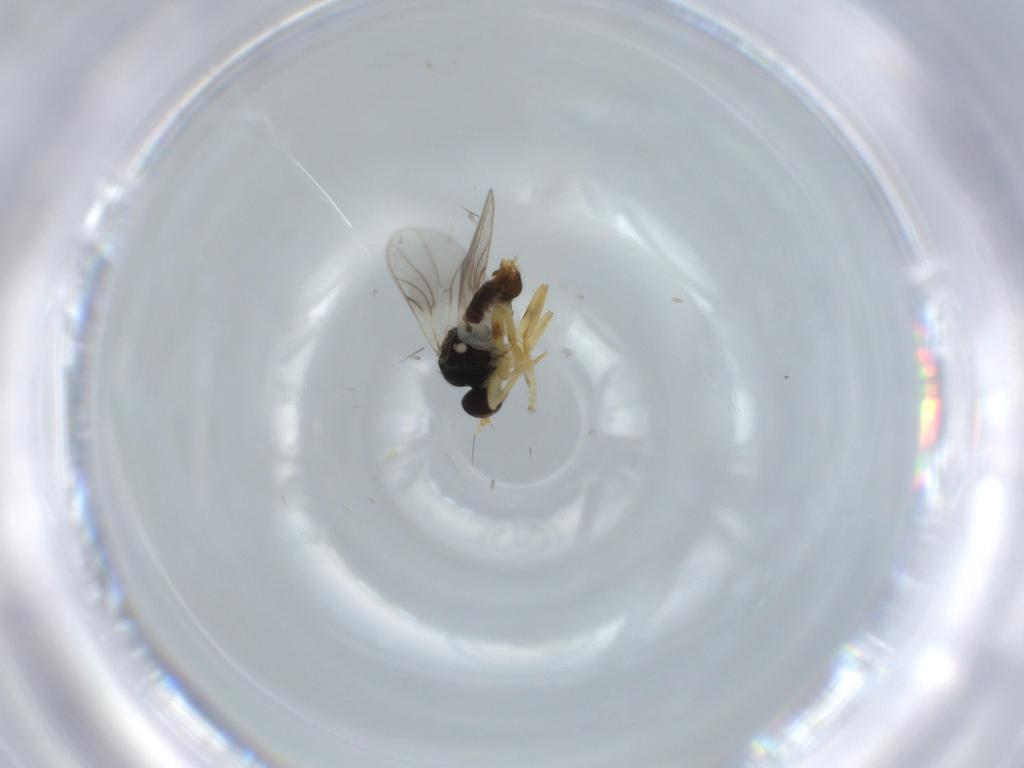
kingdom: Animalia
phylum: Arthropoda
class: Insecta
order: Diptera
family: Hybotidae
